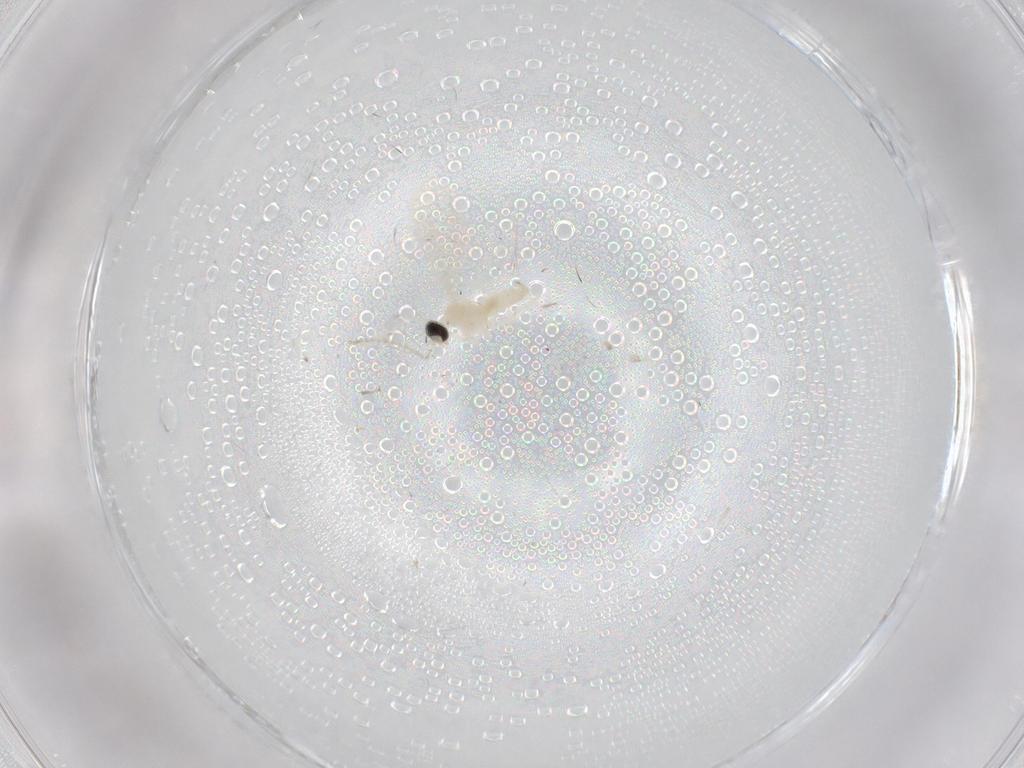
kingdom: Animalia
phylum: Arthropoda
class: Insecta
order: Diptera
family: Cecidomyiidae
